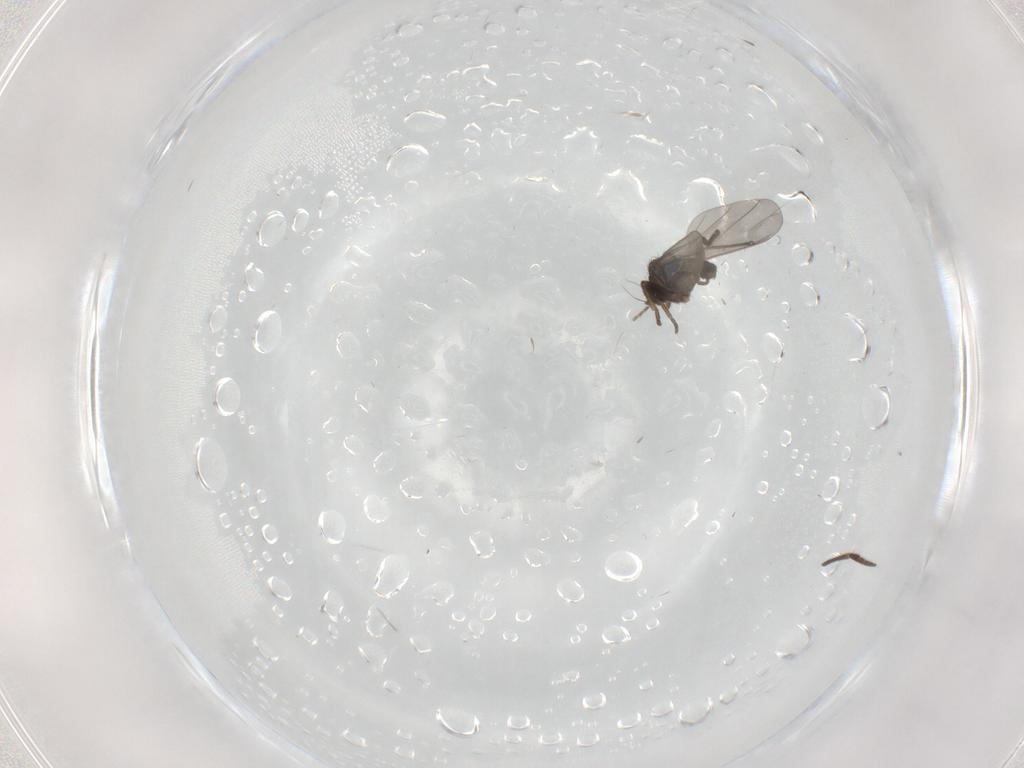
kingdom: Animalia
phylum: Arthropoda
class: Insecta
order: Diptera
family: Phoridae
